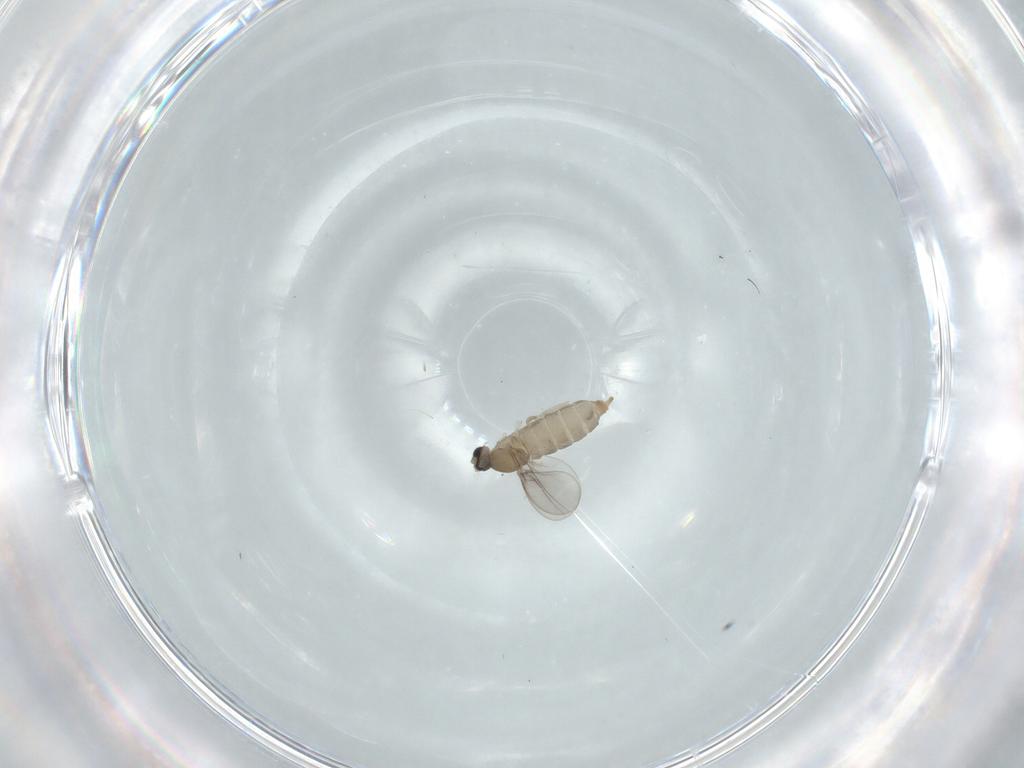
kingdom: Animalia
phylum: Arthropoda
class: Insecta
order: Diptera
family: Cecidomyiidae
